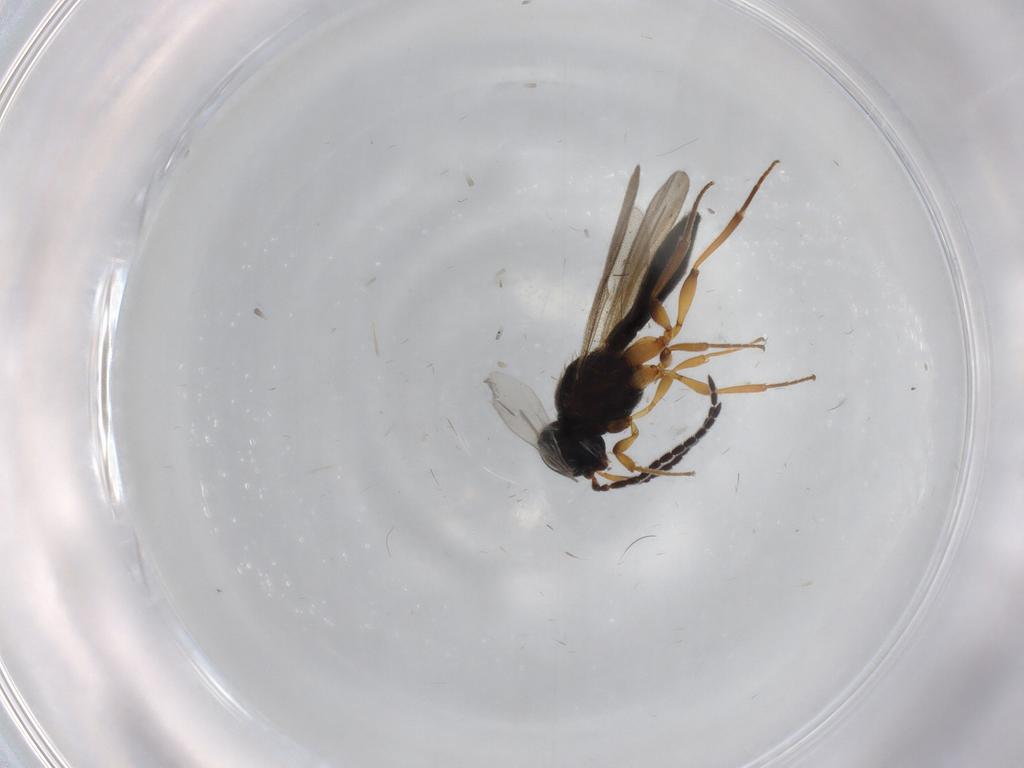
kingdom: Animalia
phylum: Arthropoda
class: Insecta
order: Hymenoptera
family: Scelionidae
